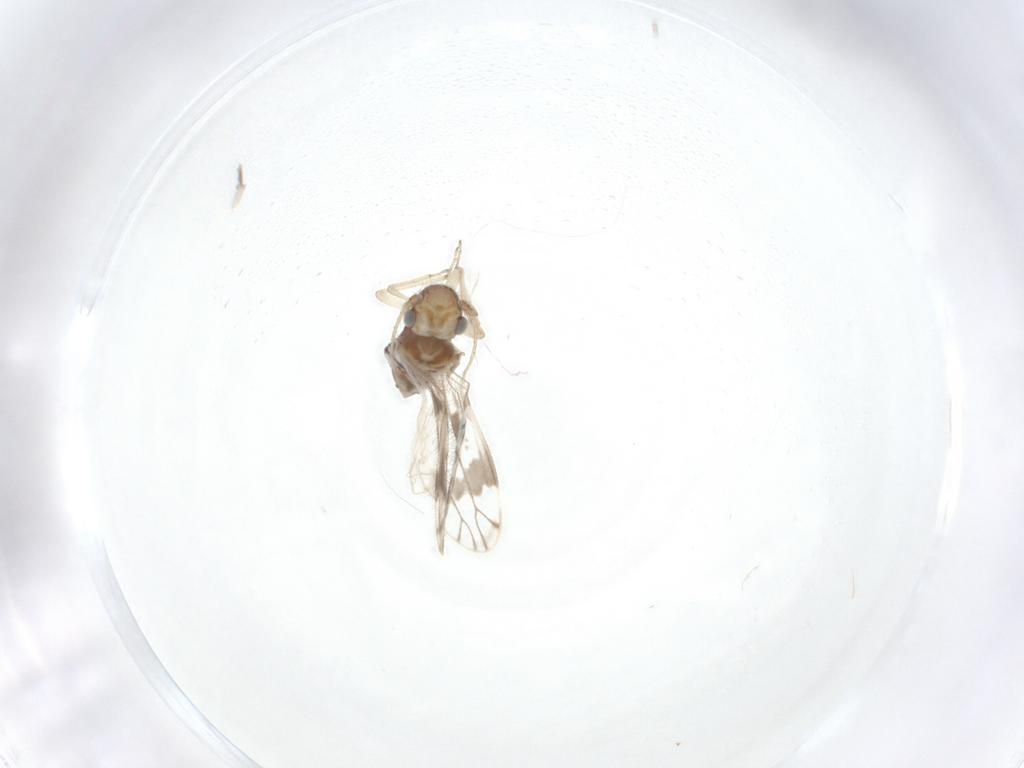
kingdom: Animalia
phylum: Arthropoda
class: Insecta
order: Psocodea
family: Pseudocaeciliidae
